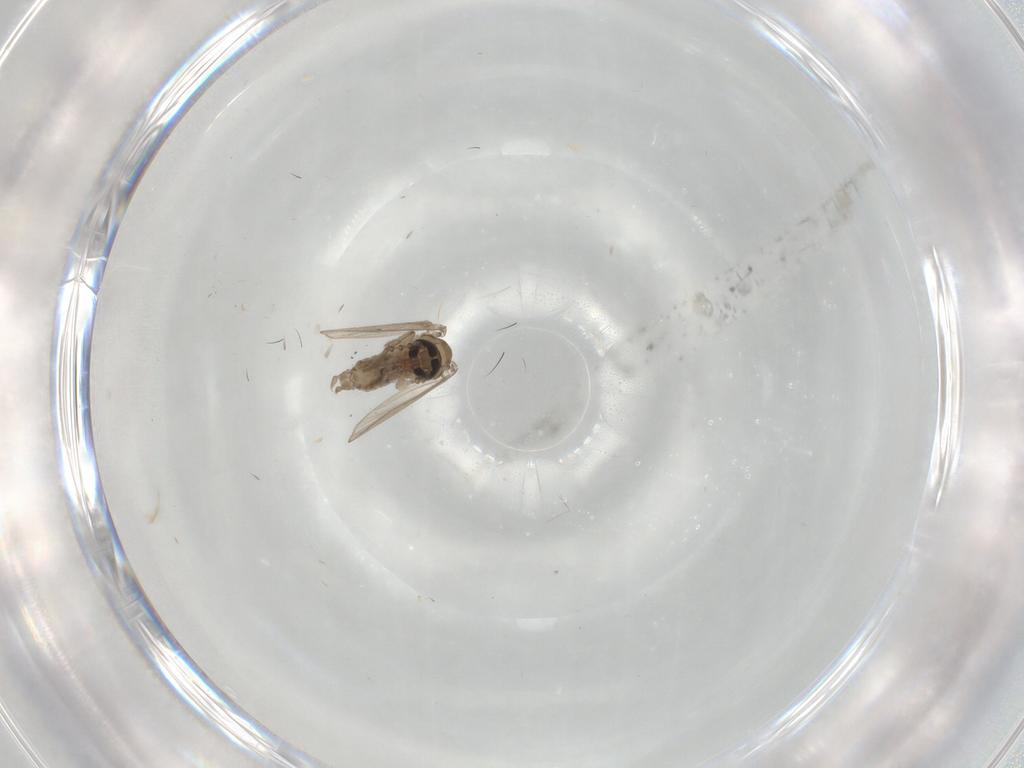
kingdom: Animalia
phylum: Arthropoda
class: Insecta
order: Diptera
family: Psychodidae
